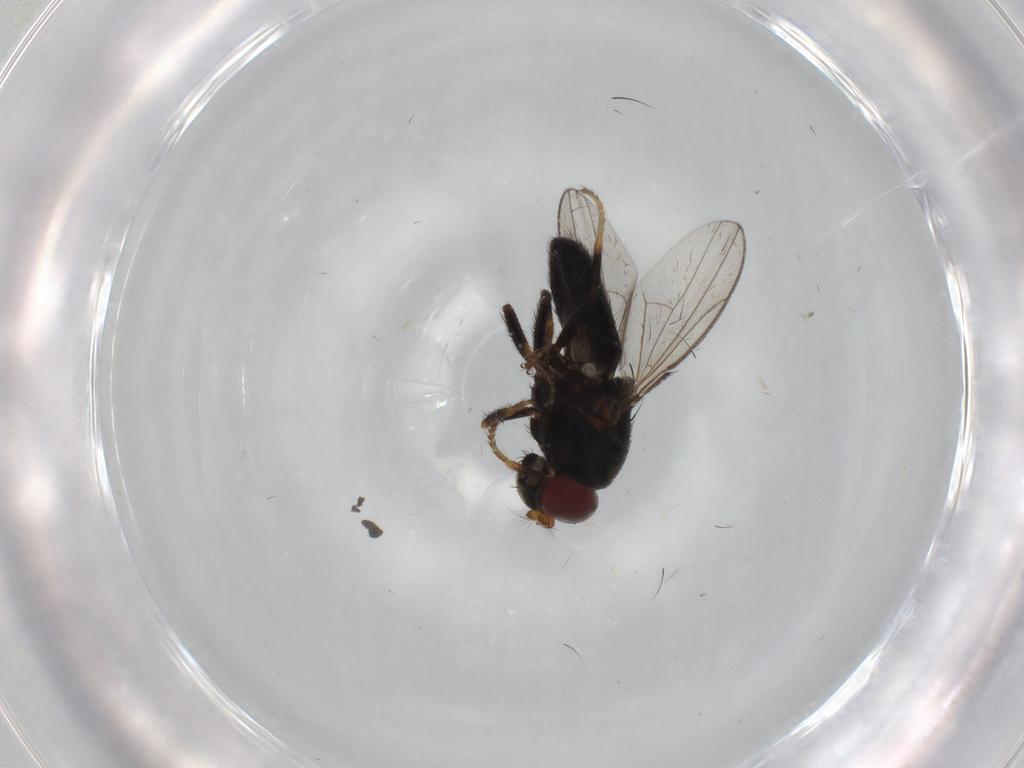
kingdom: Animalia
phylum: Arthropoda
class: Insecta
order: Diptera
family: Dolichopodidae
